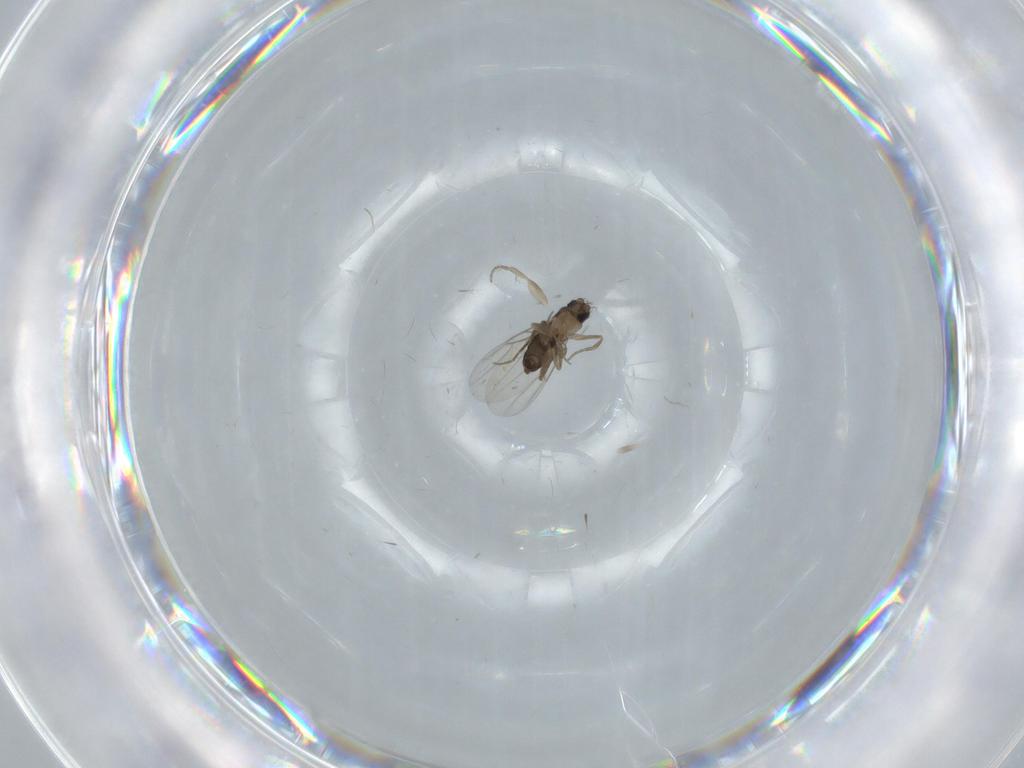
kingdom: Animalia
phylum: Arthropoda
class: Insecta
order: Diptera
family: Phoridae
